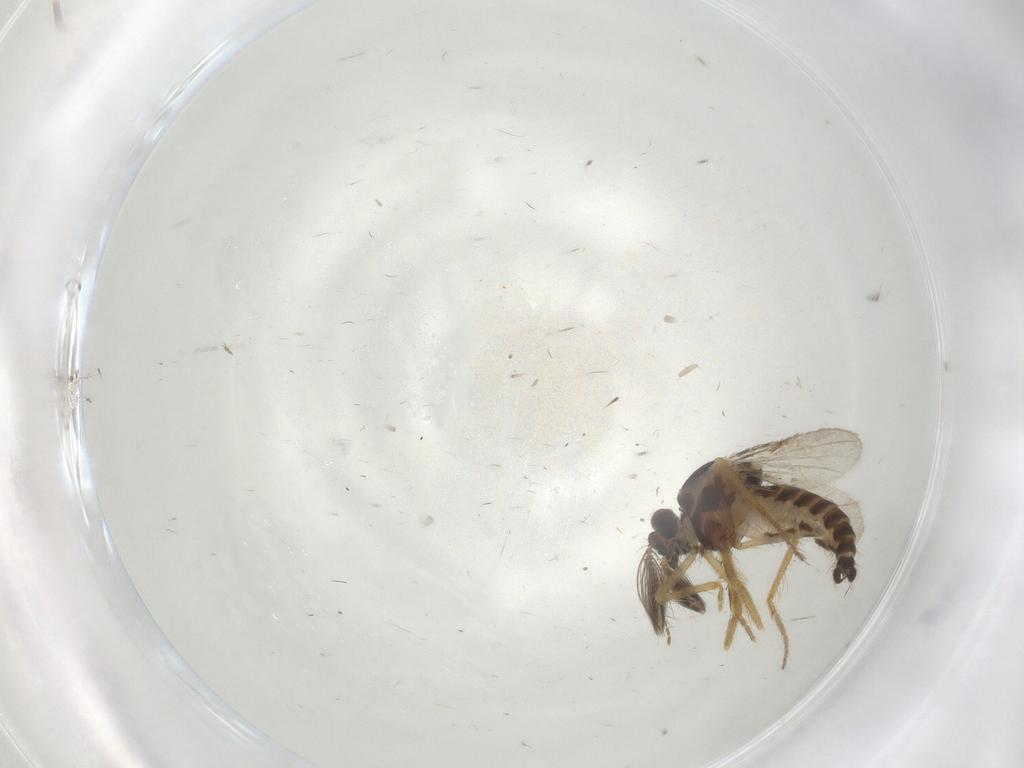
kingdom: Animalia
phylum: Arthropoda
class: Insecta
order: Diptera
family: Ceratopogonidae
